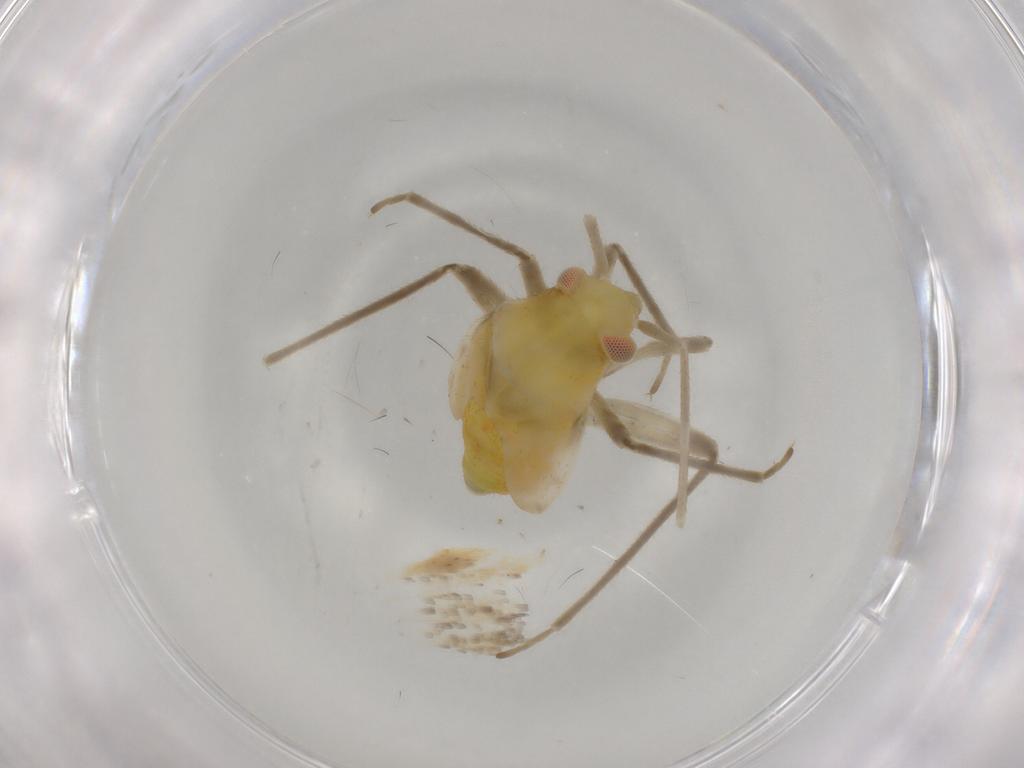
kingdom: Animalia
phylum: Arthropoda
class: Insecta
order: Hemiptera
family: Miridae
